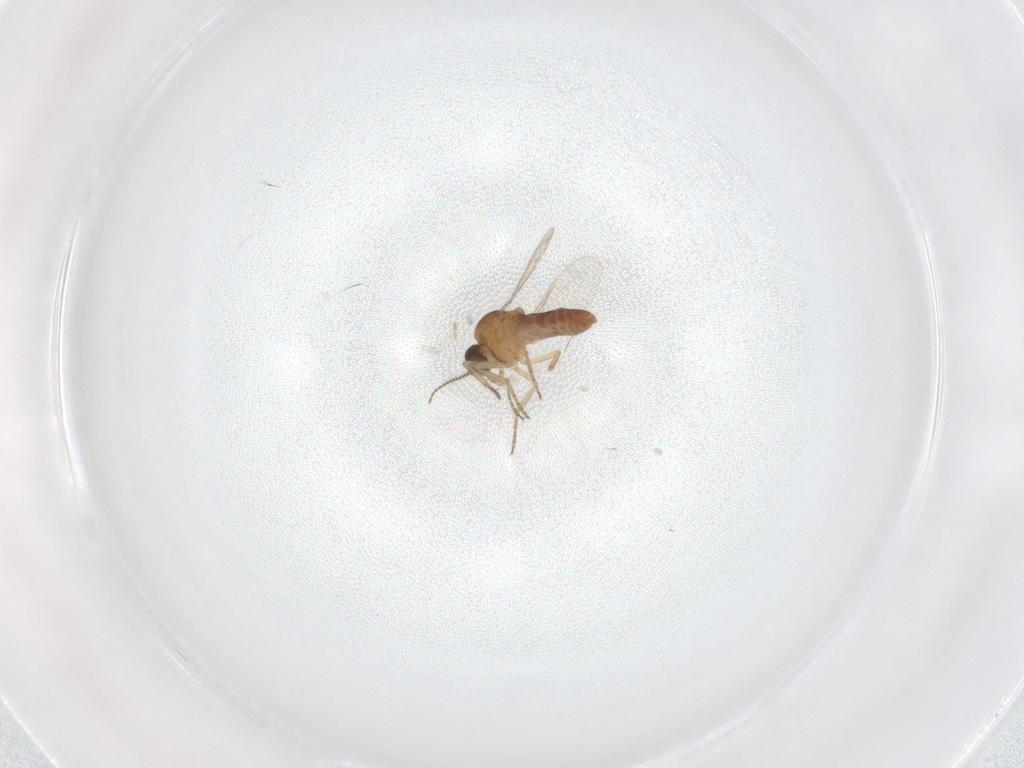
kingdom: Animalia
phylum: Arthropoda
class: Insecta
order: Diptera
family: Ceratopogonidae
